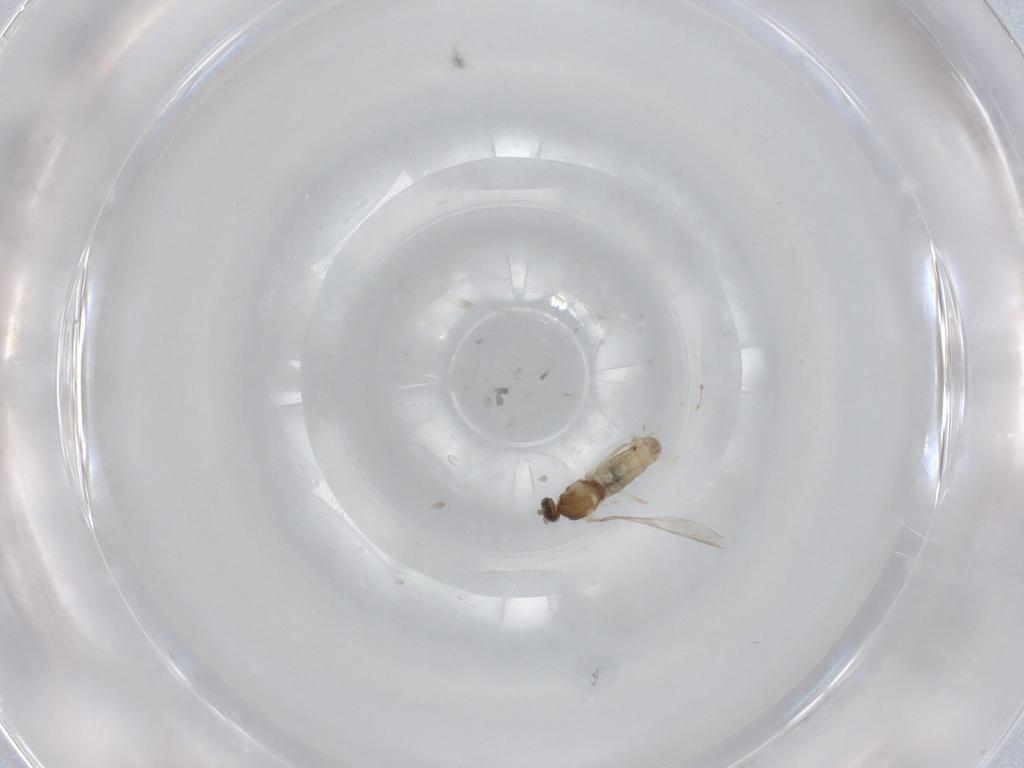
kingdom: Animalia
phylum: Arthropoda
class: Insecta
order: Diptera
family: Cecidomyiidae
